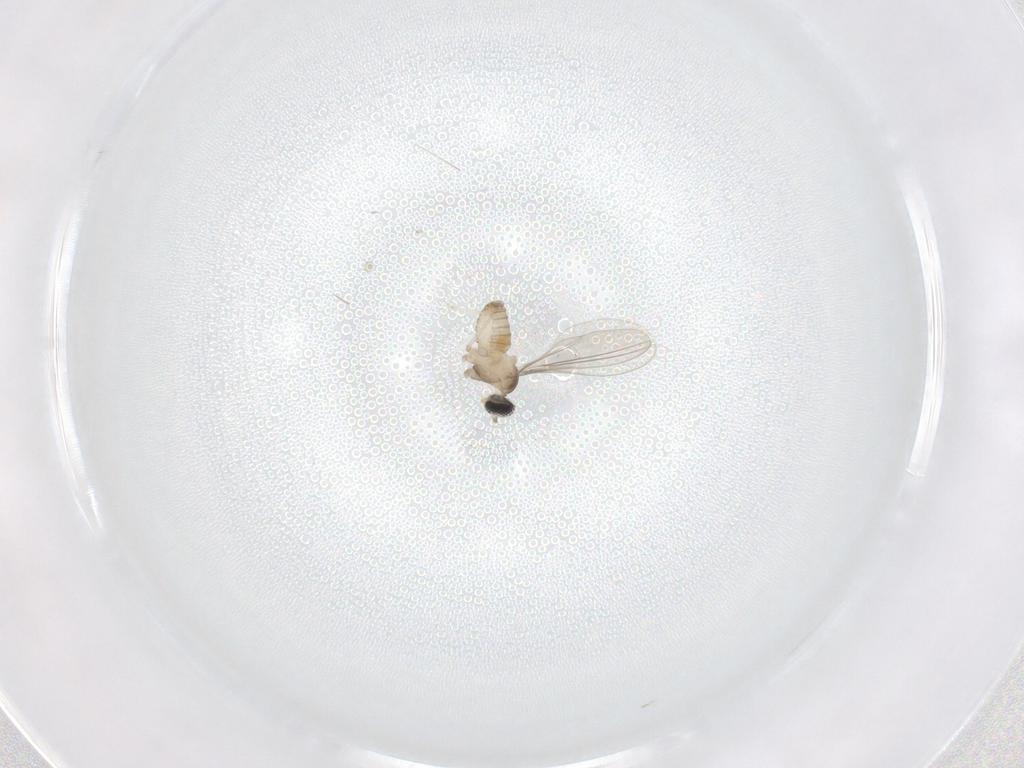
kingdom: Animalia
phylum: Arthropoda
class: Insecta
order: Diptera
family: Cecidomyiidae
